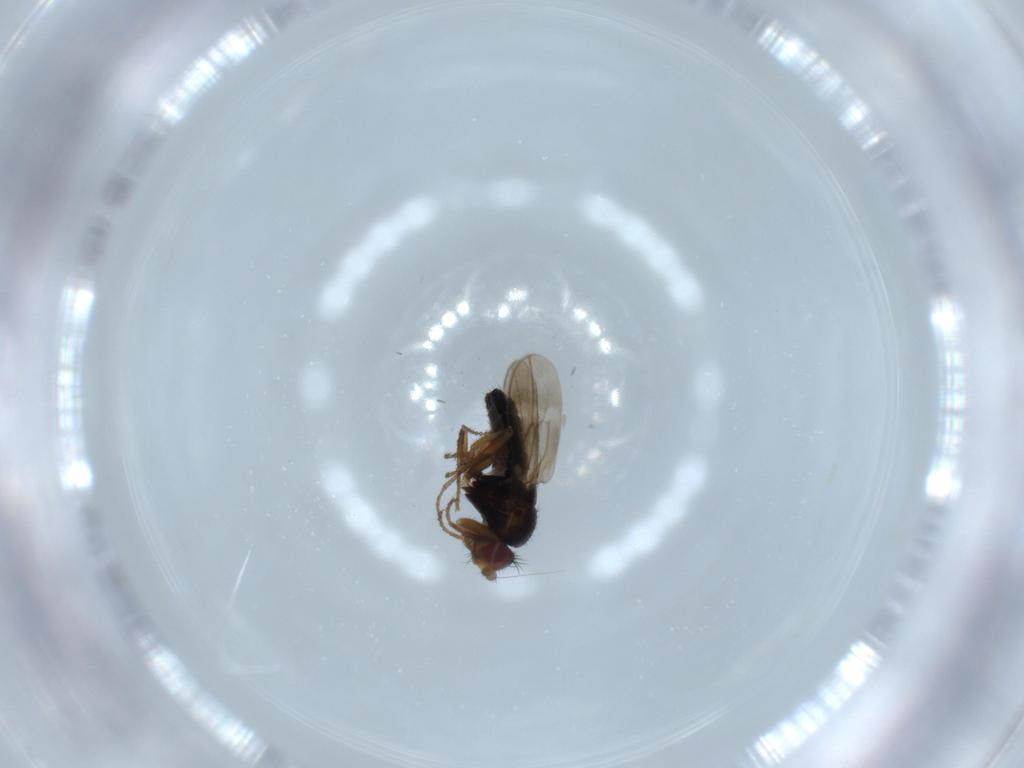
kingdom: Animalia
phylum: Arthropoda
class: Insecta
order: Diptera
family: Sphaeroceridae
